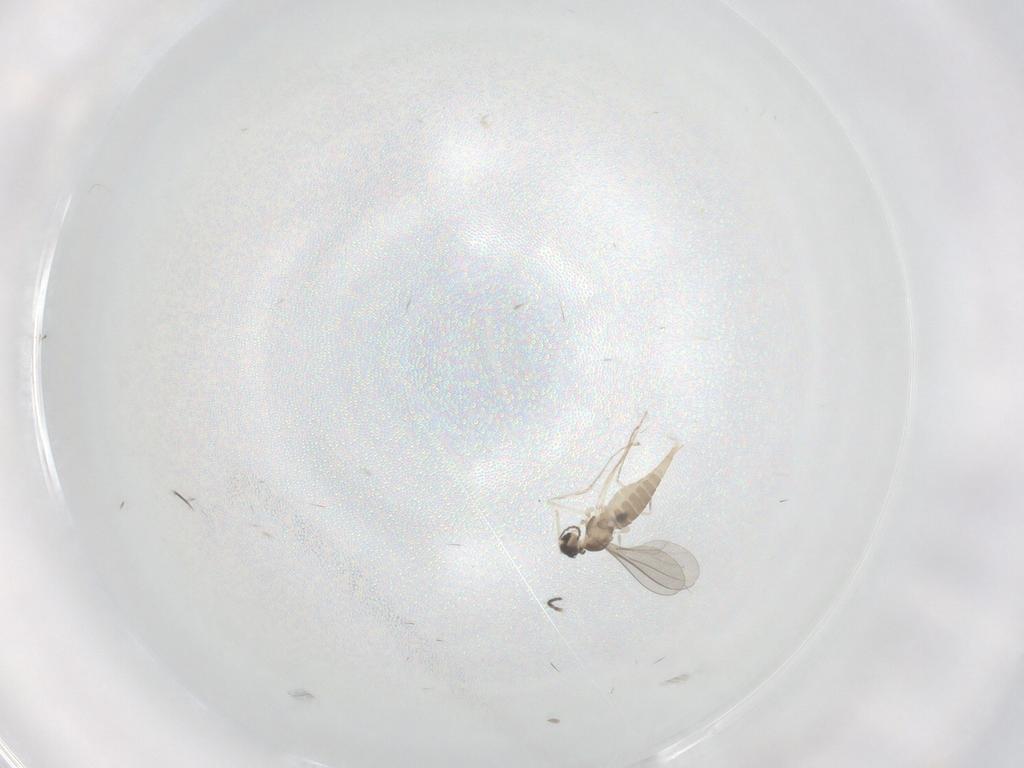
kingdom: Animalia
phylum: Arthropoda
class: Insecta
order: Diptera
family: Cecidomyiidae
